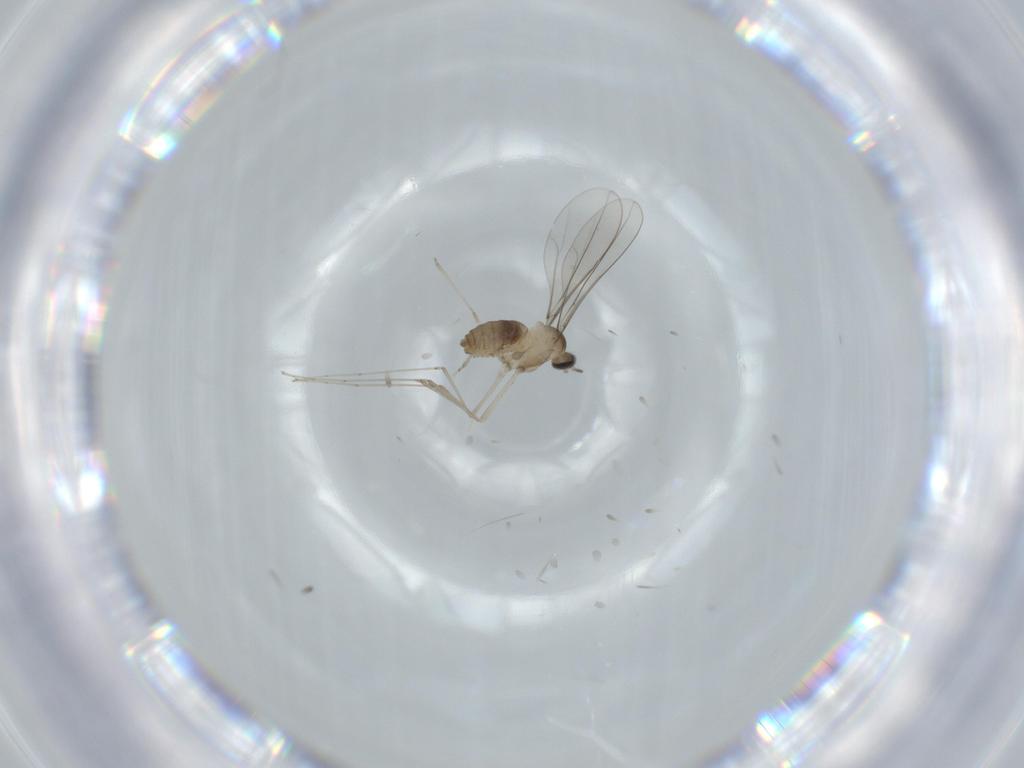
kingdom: Animalia
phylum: Arthropoda
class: Insecta
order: Diptera
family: Cecidomyiidae
